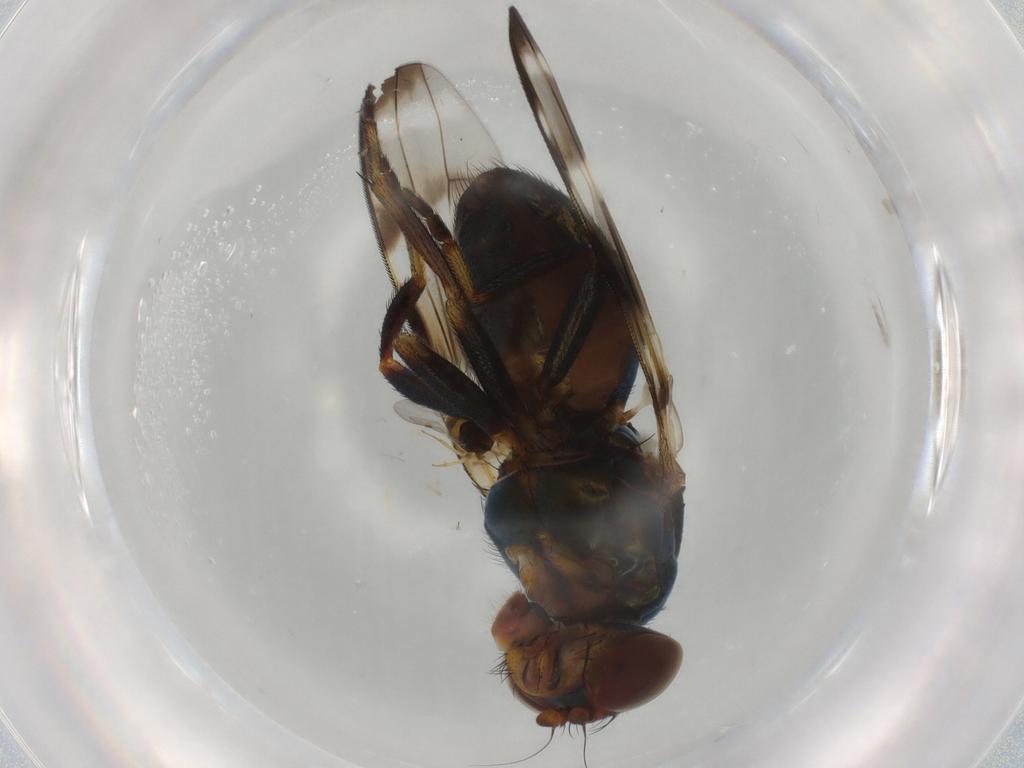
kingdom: Animalia
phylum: Arthropoda
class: Insecta
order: Diptera
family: Ulidiidae
